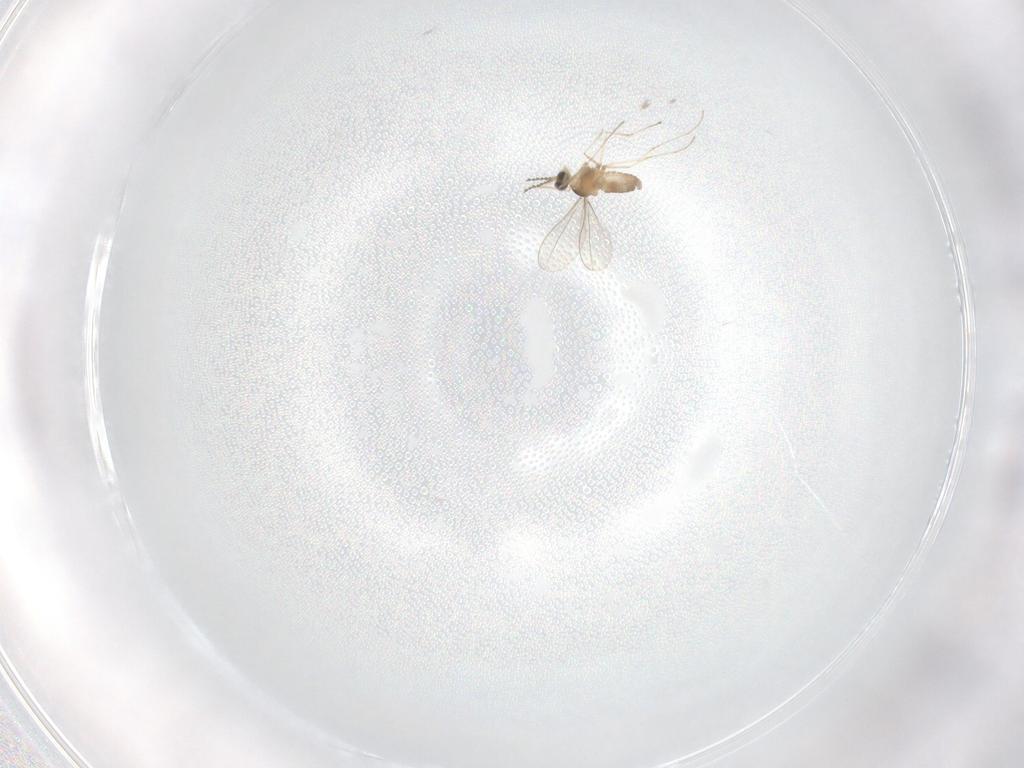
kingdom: Animalia
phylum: Arthropoda
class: Insecta
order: Diptera
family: Cecidomyiidae
